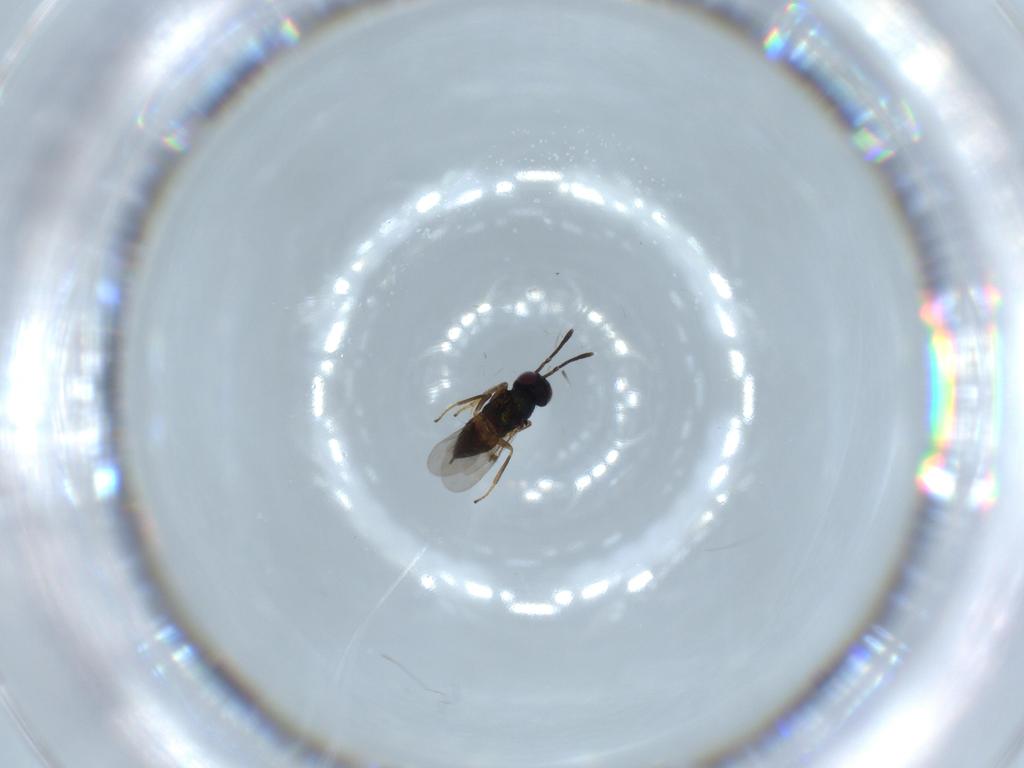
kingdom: Animalia
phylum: Arthropoda
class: Insecta
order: Hymenoptera
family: Encyrtidae
